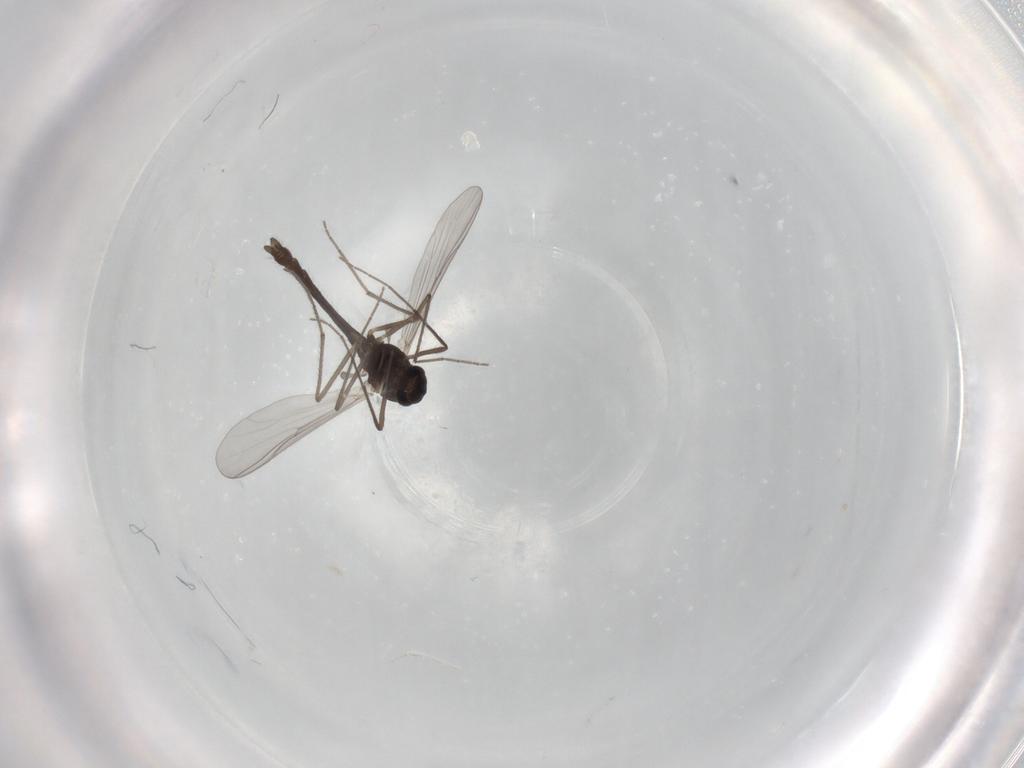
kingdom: Animalia
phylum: Arthropoda
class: Insecta
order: Diptera
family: Chironomidae
